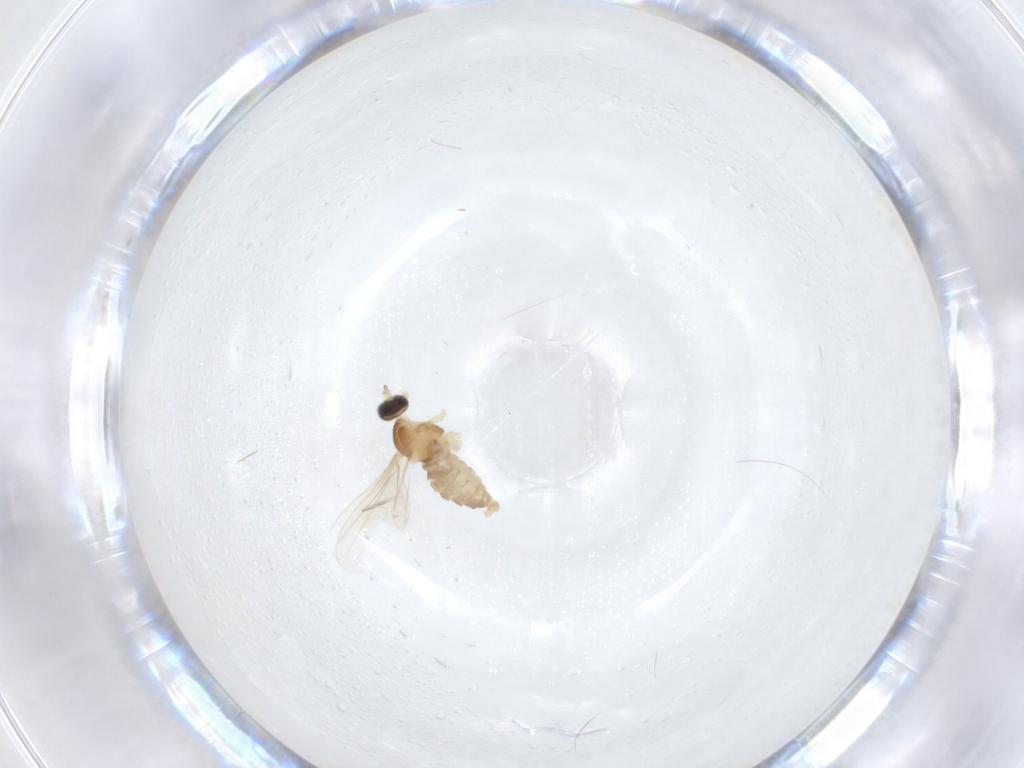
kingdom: Animalia
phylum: Arthropoda
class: Insecta
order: Diptera
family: Cecidomyiidae
